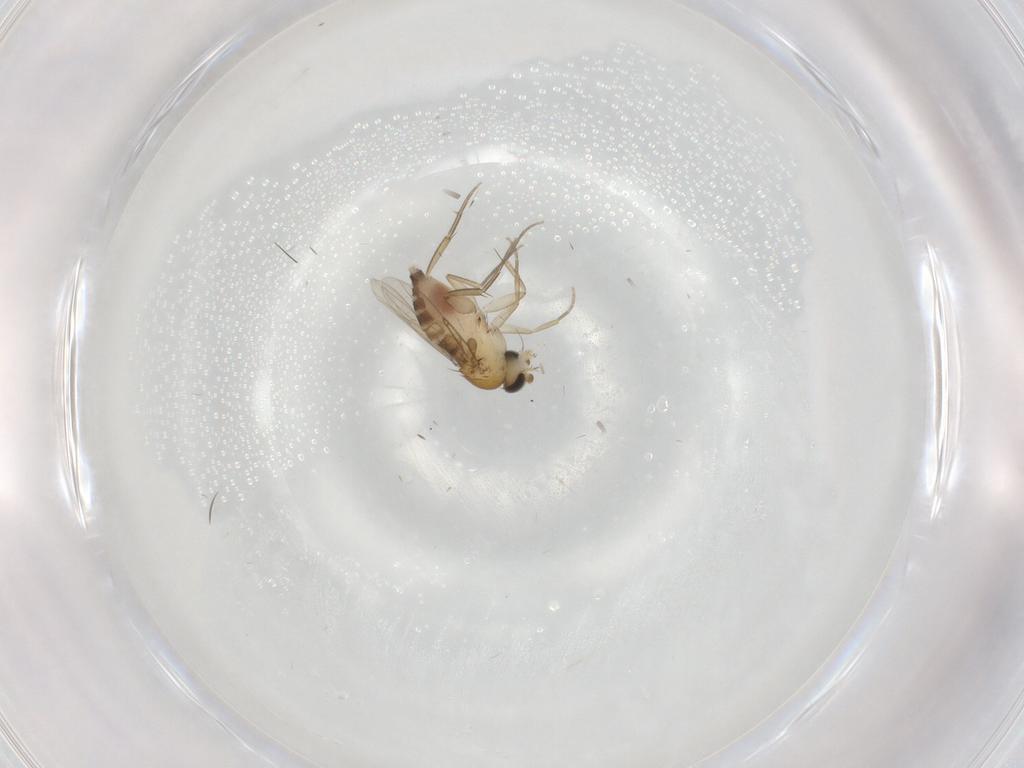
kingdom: Animalia
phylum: Arthropoda
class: Insecta
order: Diptera
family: Phoridae
